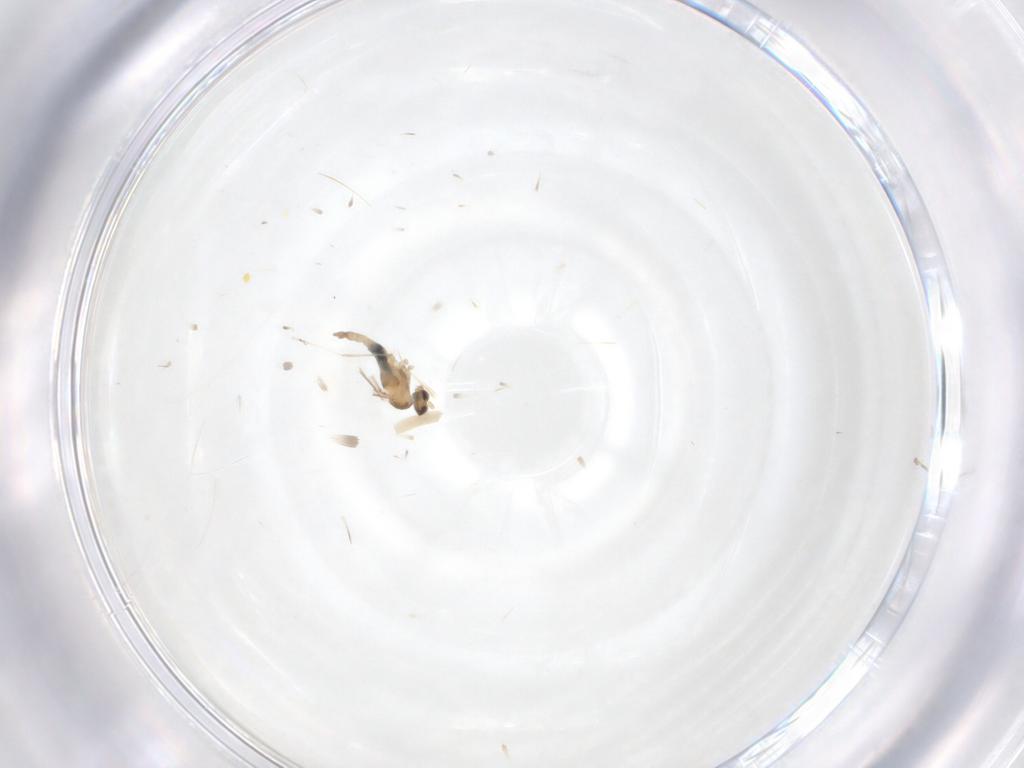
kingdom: Animalia
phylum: Arthropoda
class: Insecta
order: Diptera
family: Cecidomyiidae
